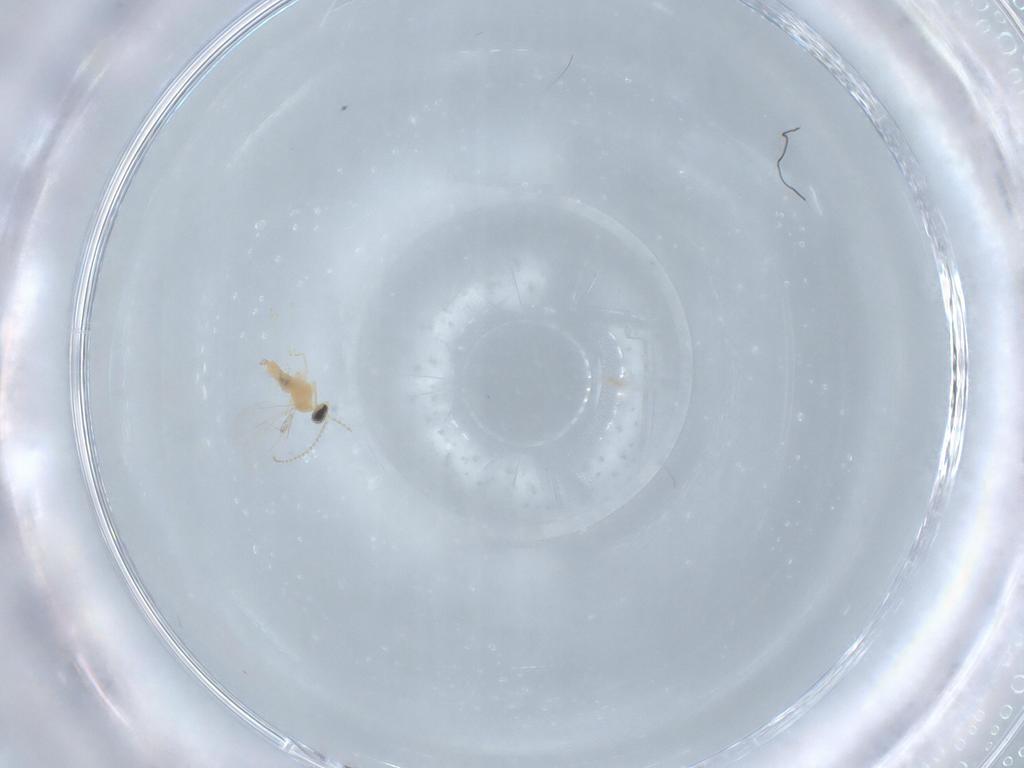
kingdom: Animalia
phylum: Arthropoda
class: Insecta
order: Diptera
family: Cecidomyiidae
